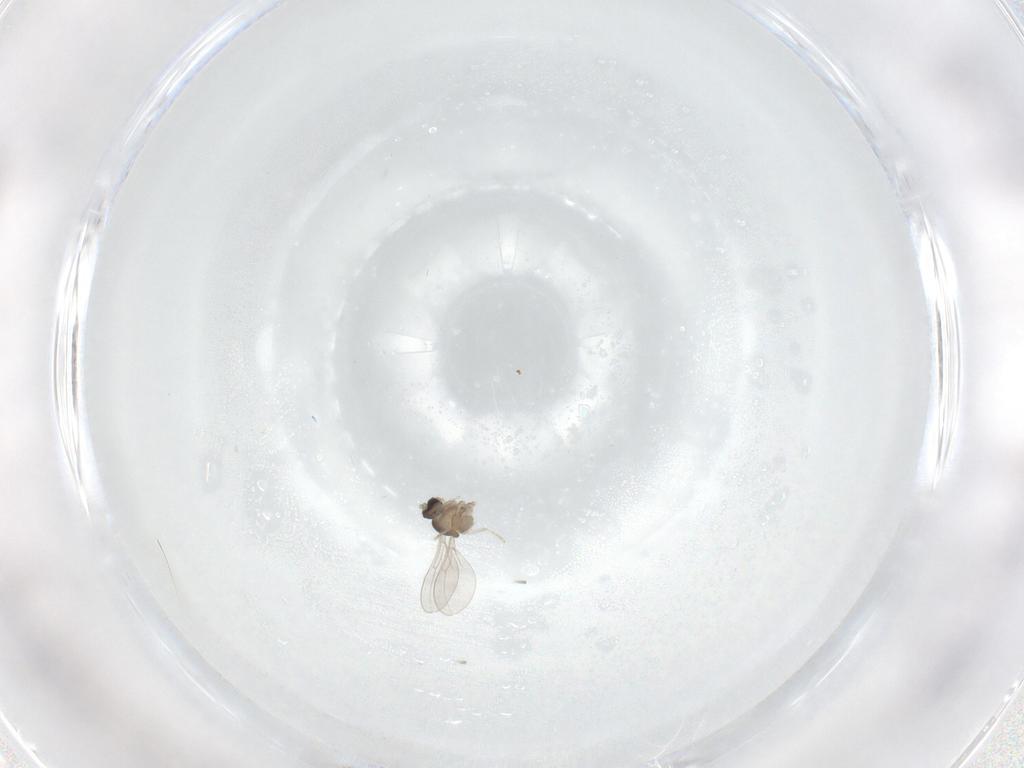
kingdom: Animalia
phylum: Arthropoda
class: Insecta
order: Diptera
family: Cecidomyiidae
